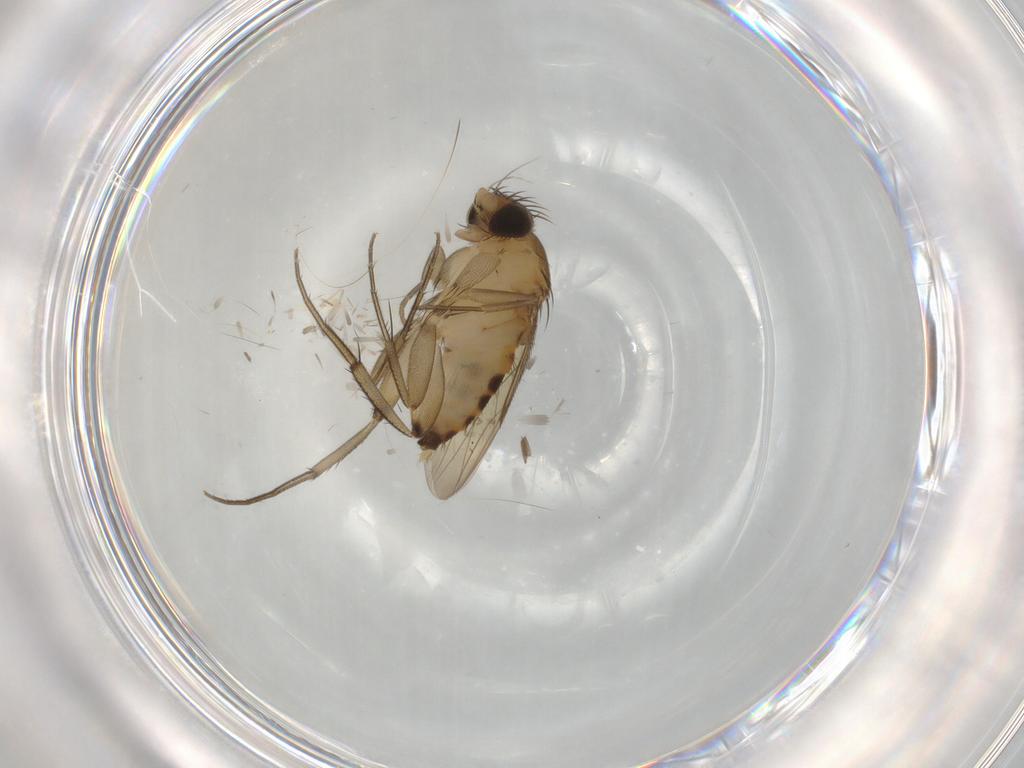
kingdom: Animalia
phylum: Arthropoda
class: Insecta
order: Diptera
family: Phoridae
